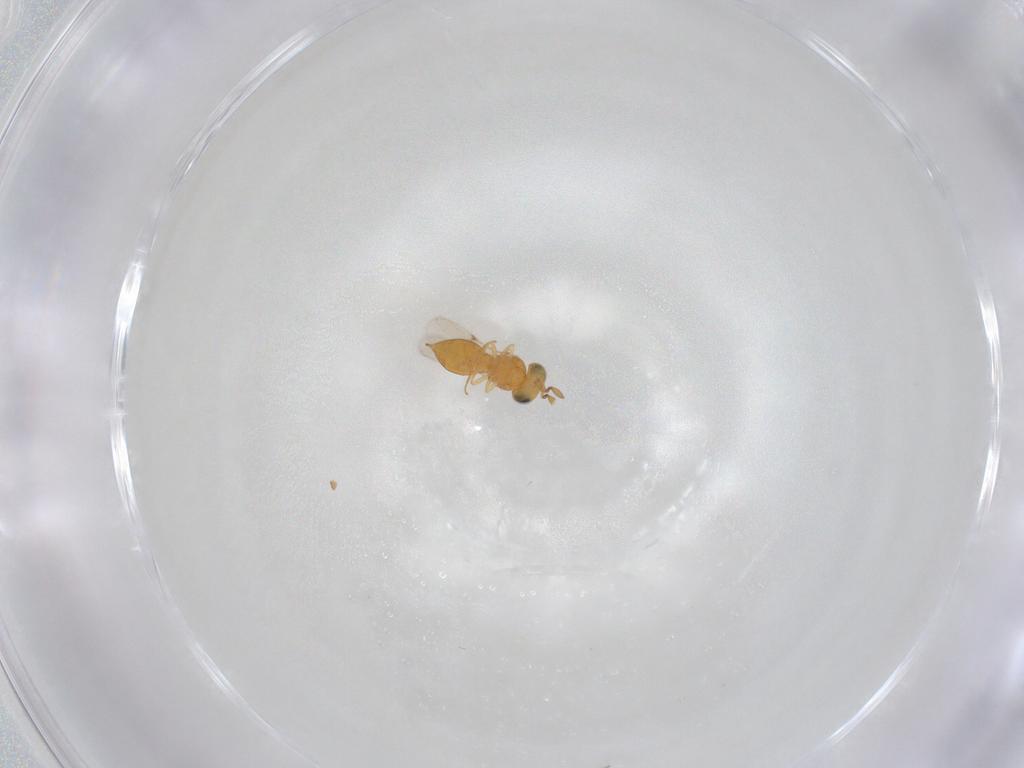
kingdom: Animalia
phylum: Arthropoda
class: Insecta
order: Hymenoptera
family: Scelionidae
